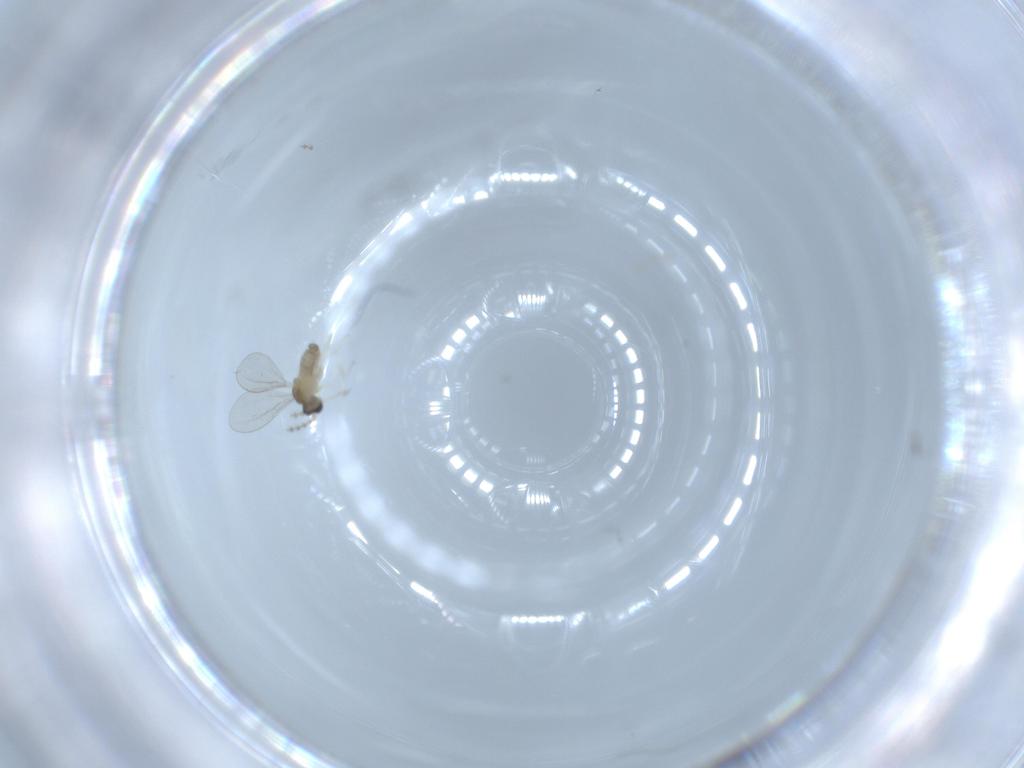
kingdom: Animalia
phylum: Arthropoda
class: Insecta
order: Diptera
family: Cecidomyiidae
